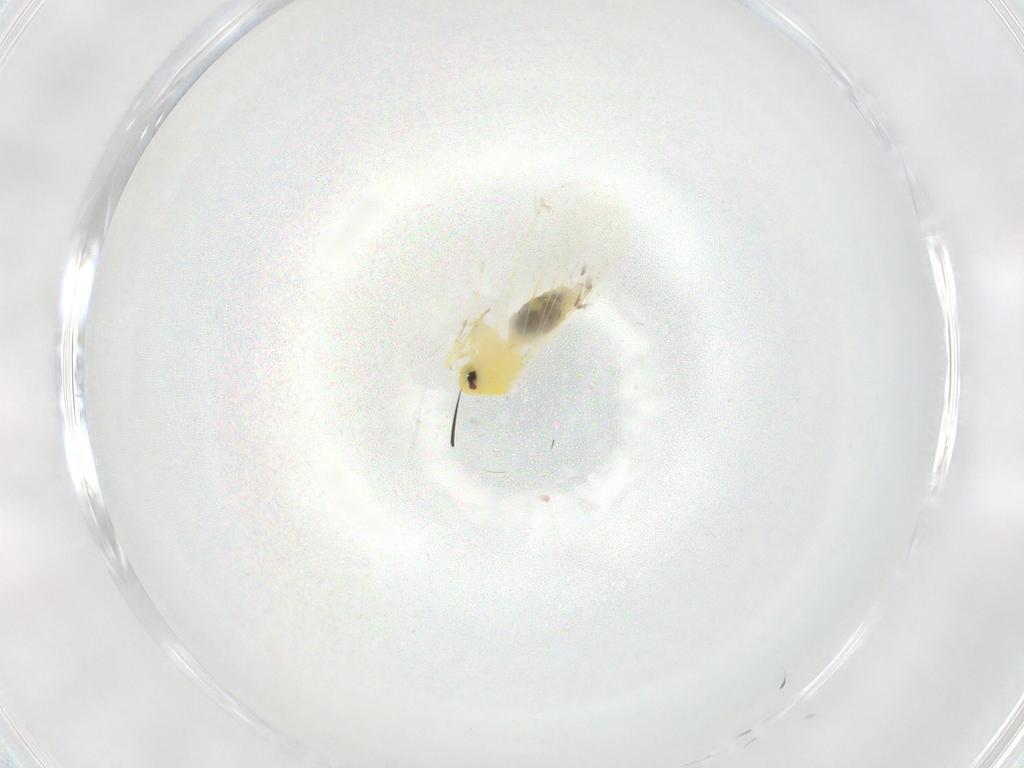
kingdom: Animalia
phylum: Arthropoda
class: Insecta
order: Hemiptera
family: Aleyrodidae
